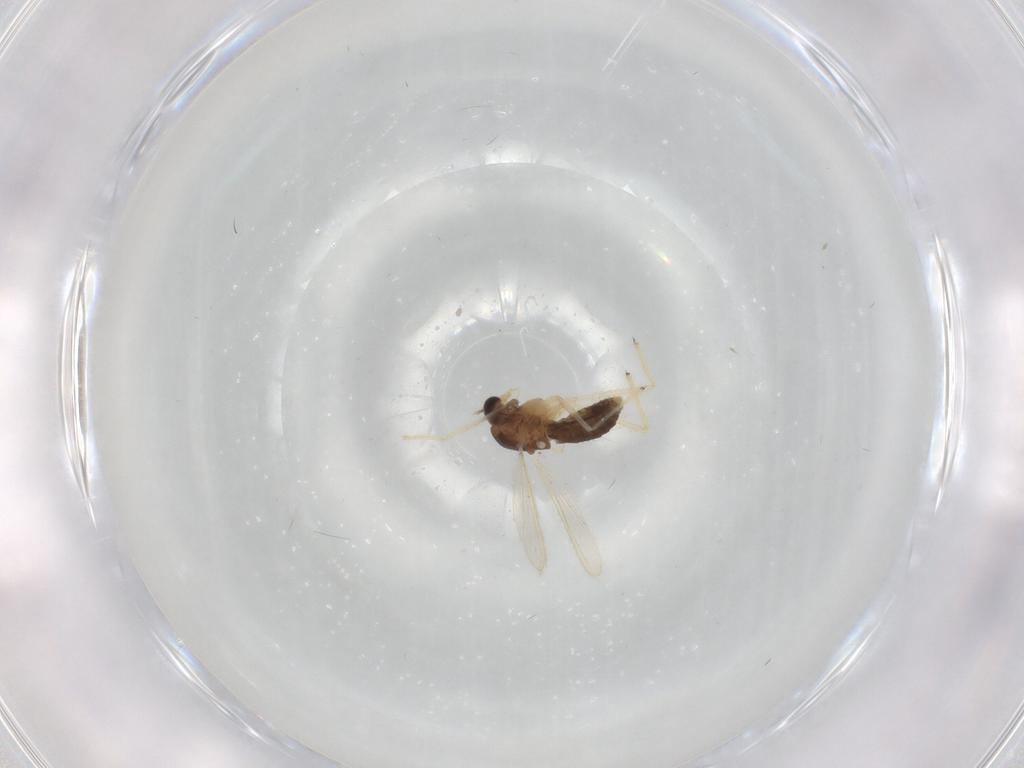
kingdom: Animalia
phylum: Arthropoda
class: Insecta
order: Diptera
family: Chironomidae
